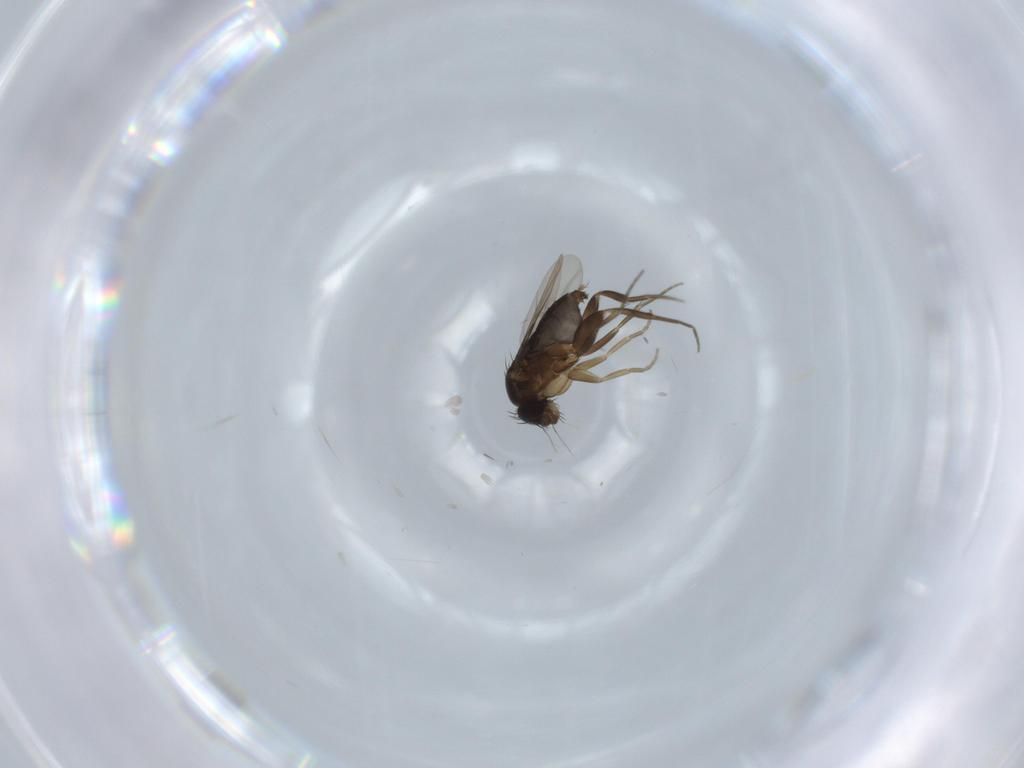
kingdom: Animalia
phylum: Arthropoda
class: Insecta
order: Diptera
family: Phoridae
